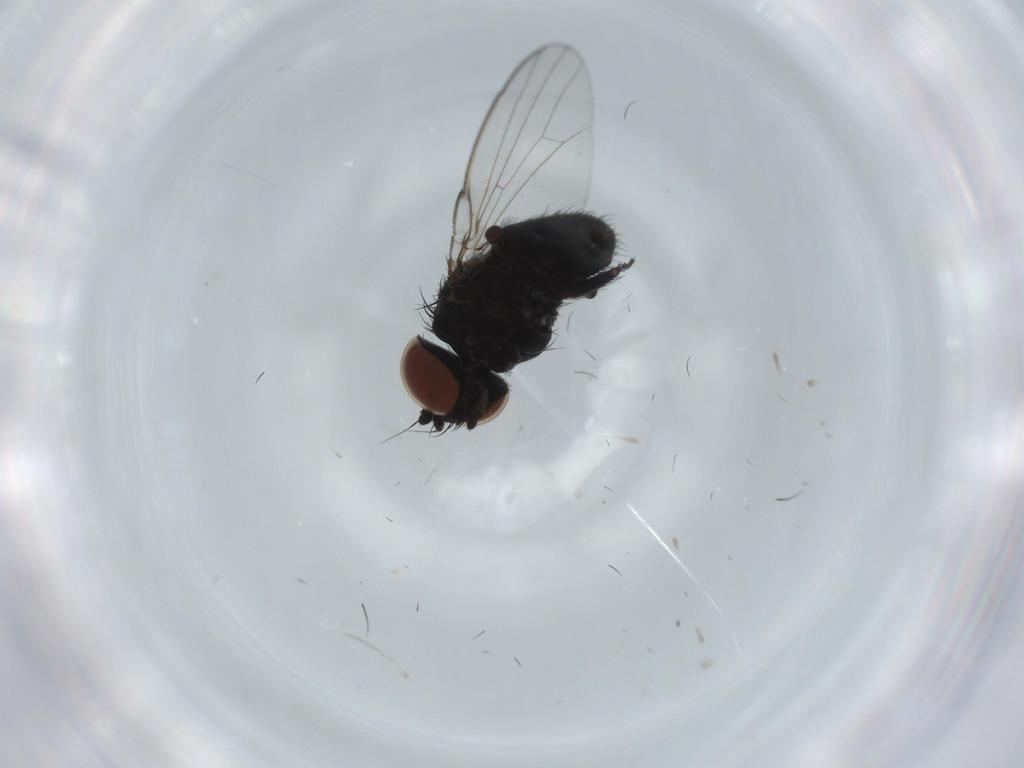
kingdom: Animalia
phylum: Arthropoda
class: Insecta
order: Diptera
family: Milichiidae
